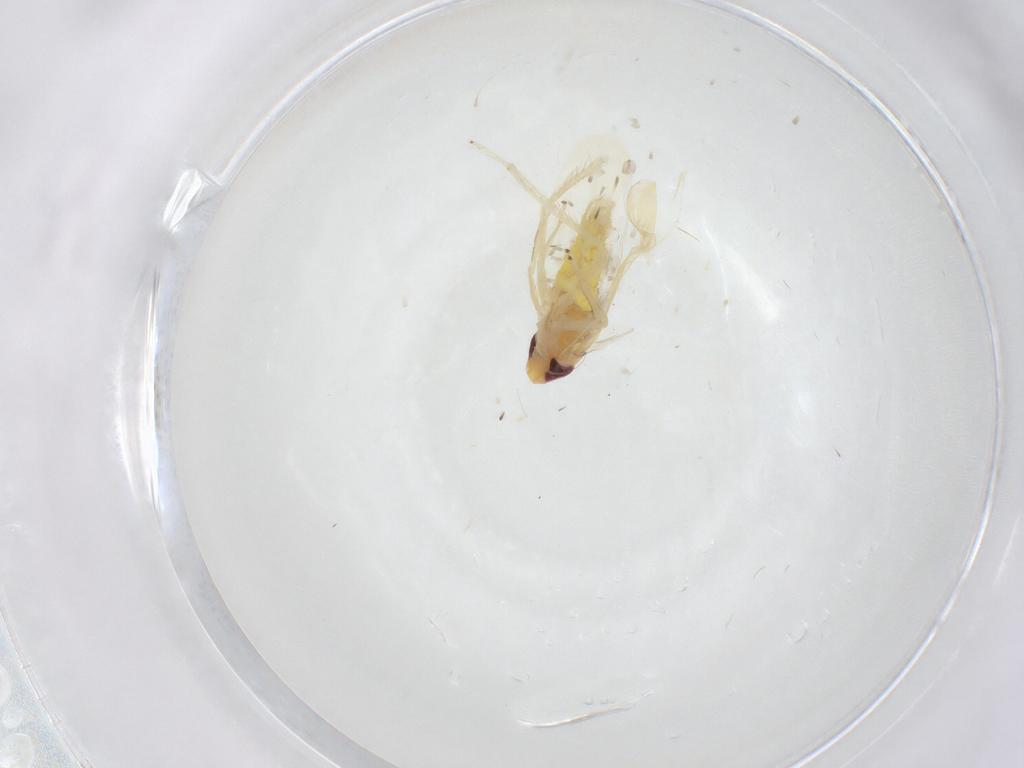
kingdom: Animalia
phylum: Arthropoda
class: Insecta
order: Hemiptera
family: Cicadellidae
